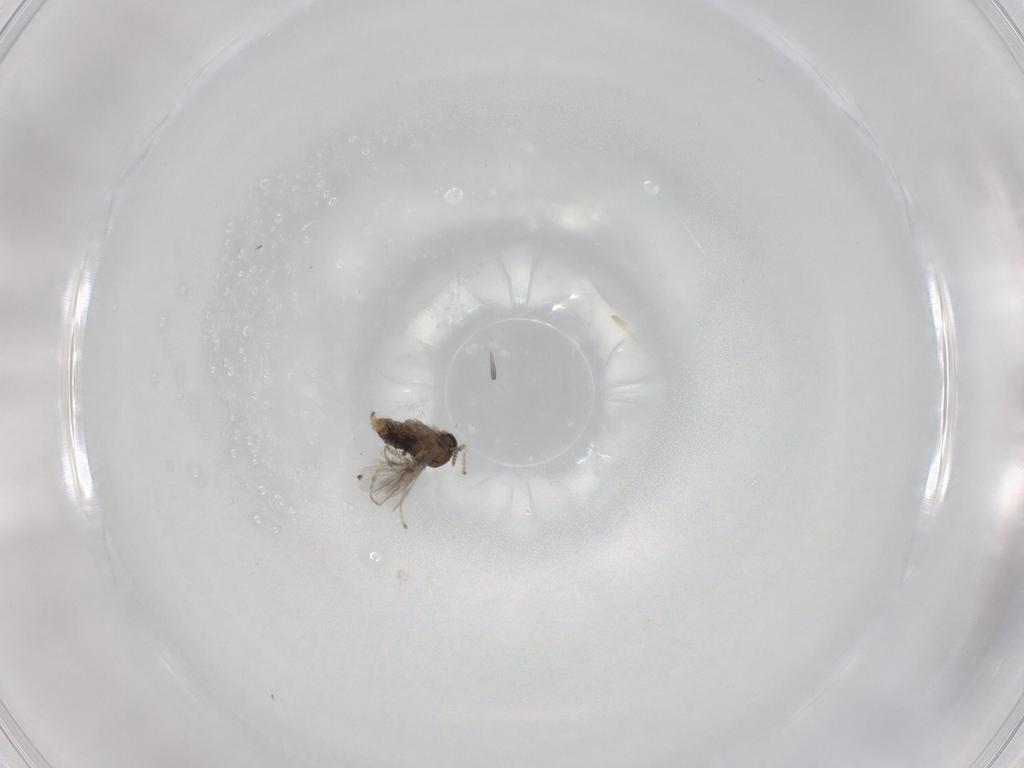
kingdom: Animalia
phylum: Arthropoda
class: Insecta
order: Diptera
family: Cecidomyiidae
